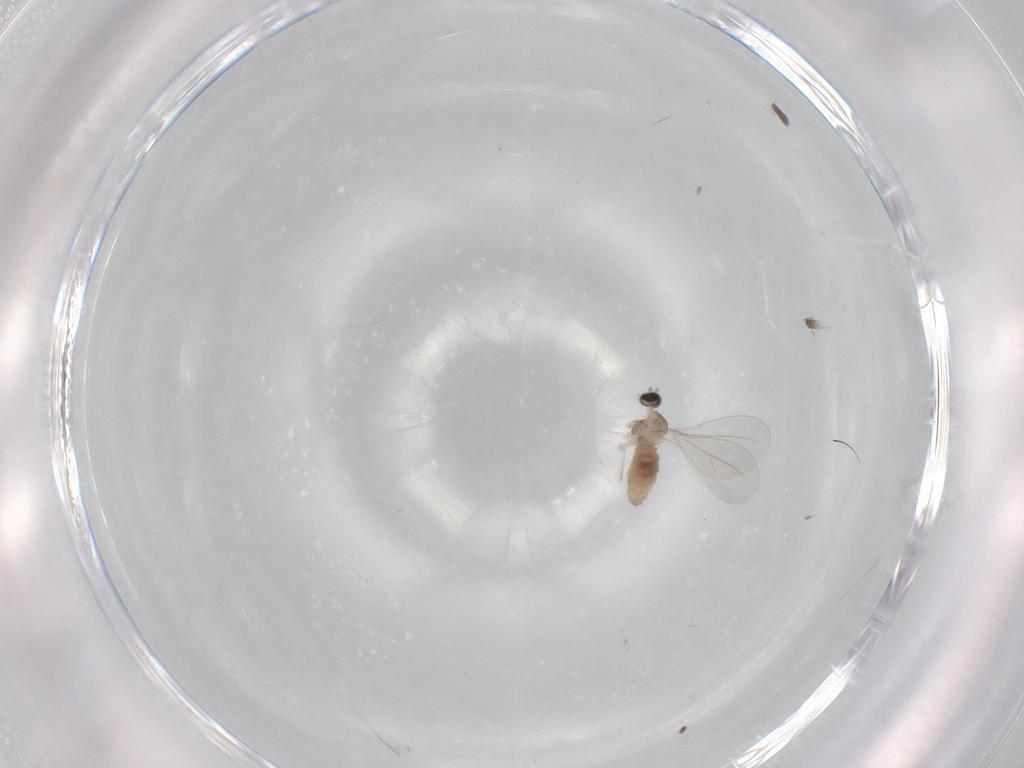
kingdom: Animalia
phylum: Arthropoda
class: Insecta
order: Diptera
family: Cecidomyiidae
